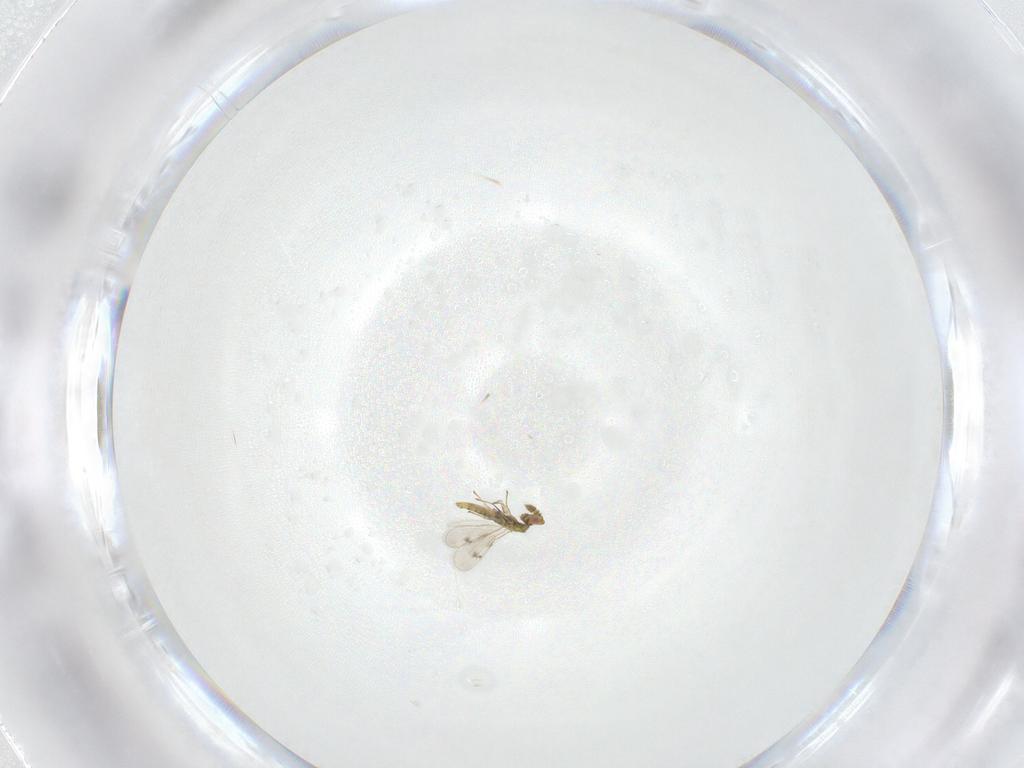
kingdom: Animalia
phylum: Arthropoda
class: Insecta
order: Hymenoptera
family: Eulophidae
